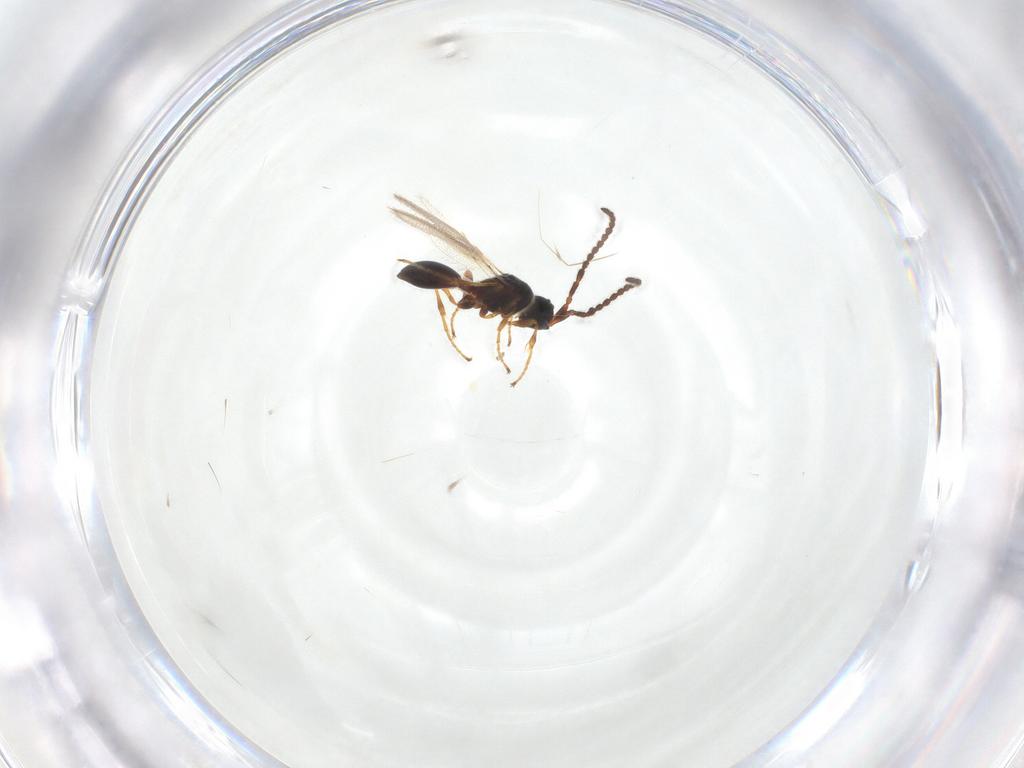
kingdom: Animalia
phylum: Arthropoda
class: Insecta
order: Hymenoptera
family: Diapriidae
